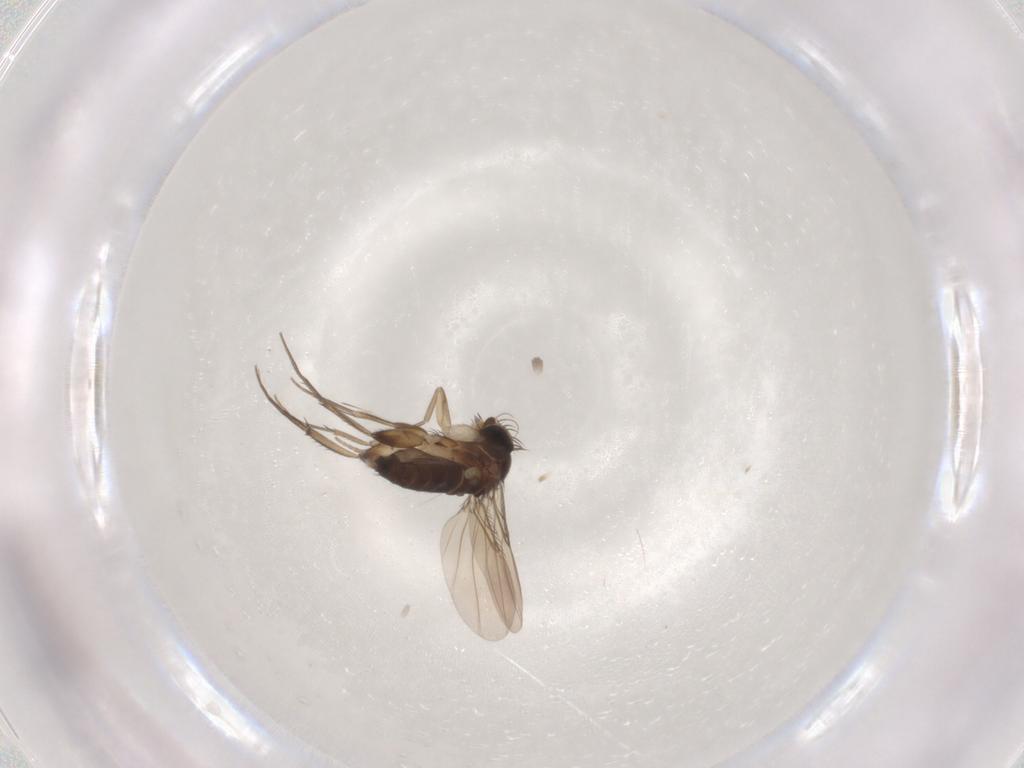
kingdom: Animalia
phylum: Arthropoda
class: Insecta
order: Diptera
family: Phoridae
